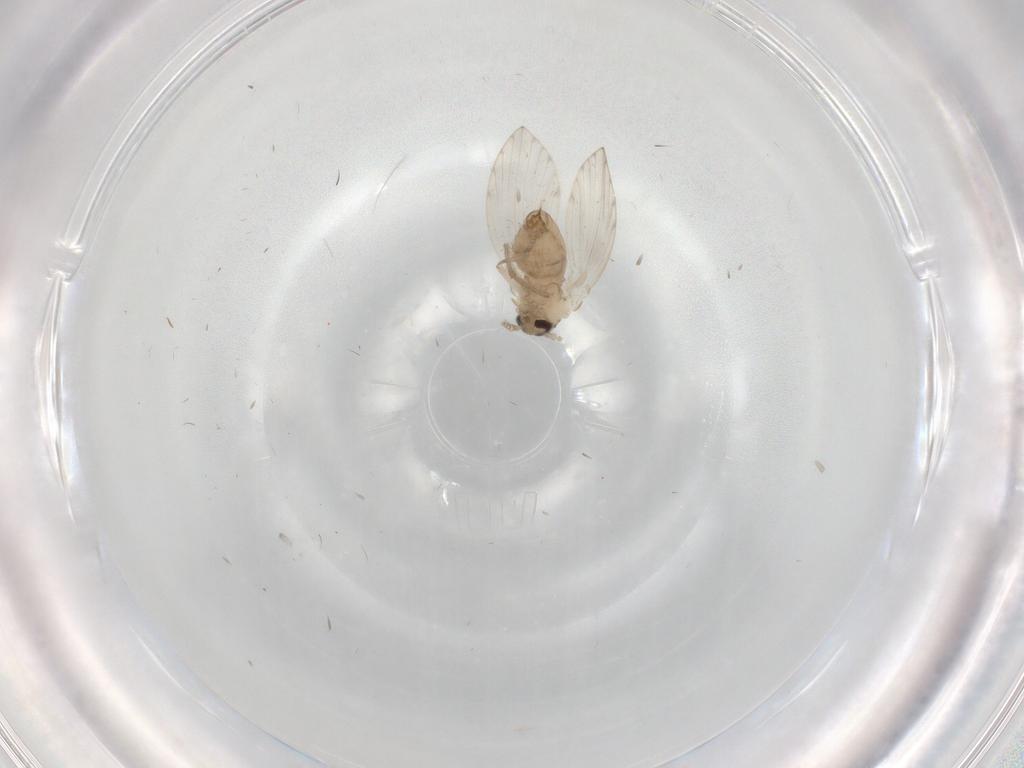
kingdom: Animalia
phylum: Arthropoda
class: Insecta
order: Diptera
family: Psychodidae
